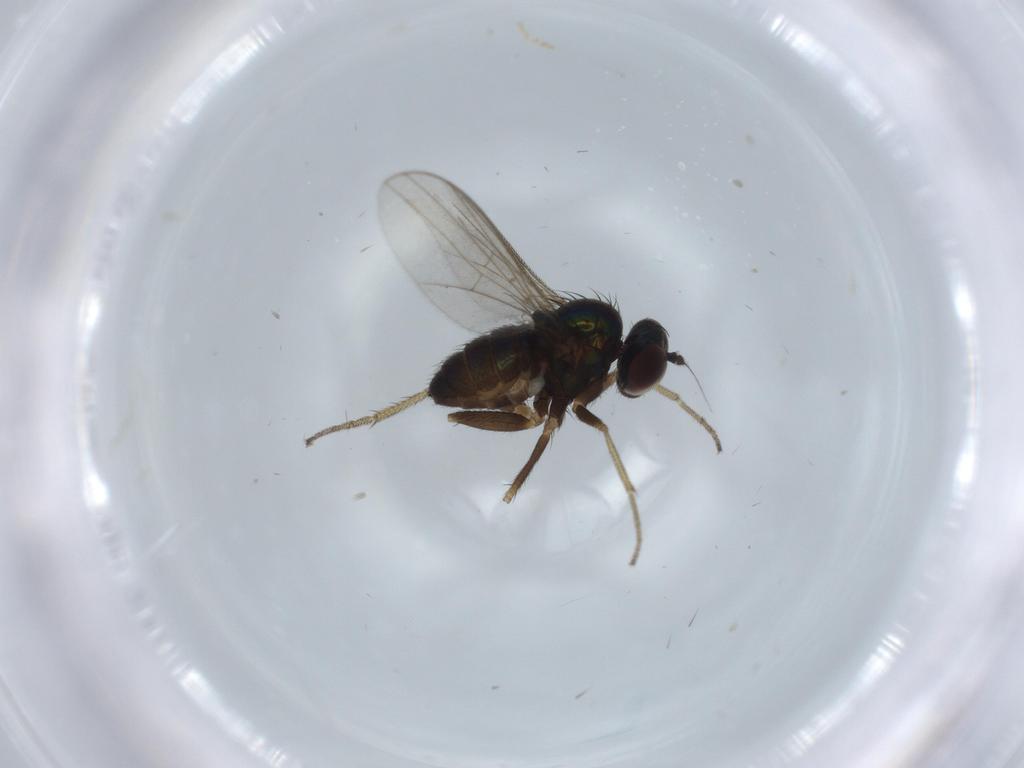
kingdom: Animalia
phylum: Arthropoda
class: Insecta
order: Diptera
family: Dolichopodidae
